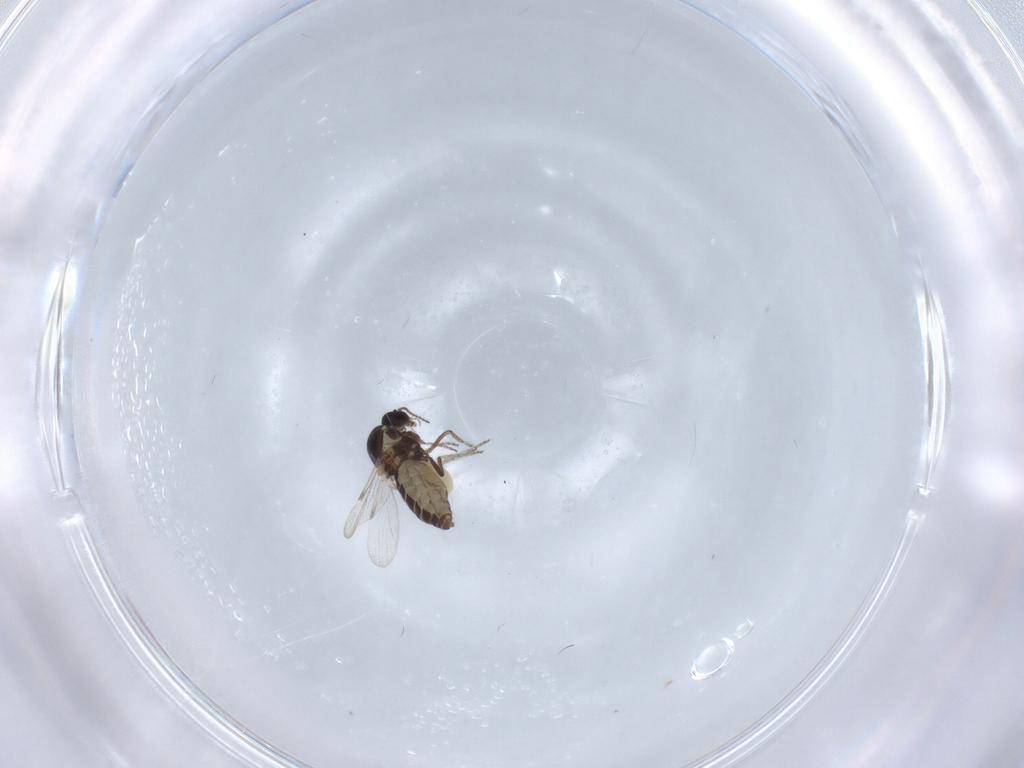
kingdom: Animalia
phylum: Arthropoda
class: Insecta
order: Diptera
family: Ceratopogonidae
